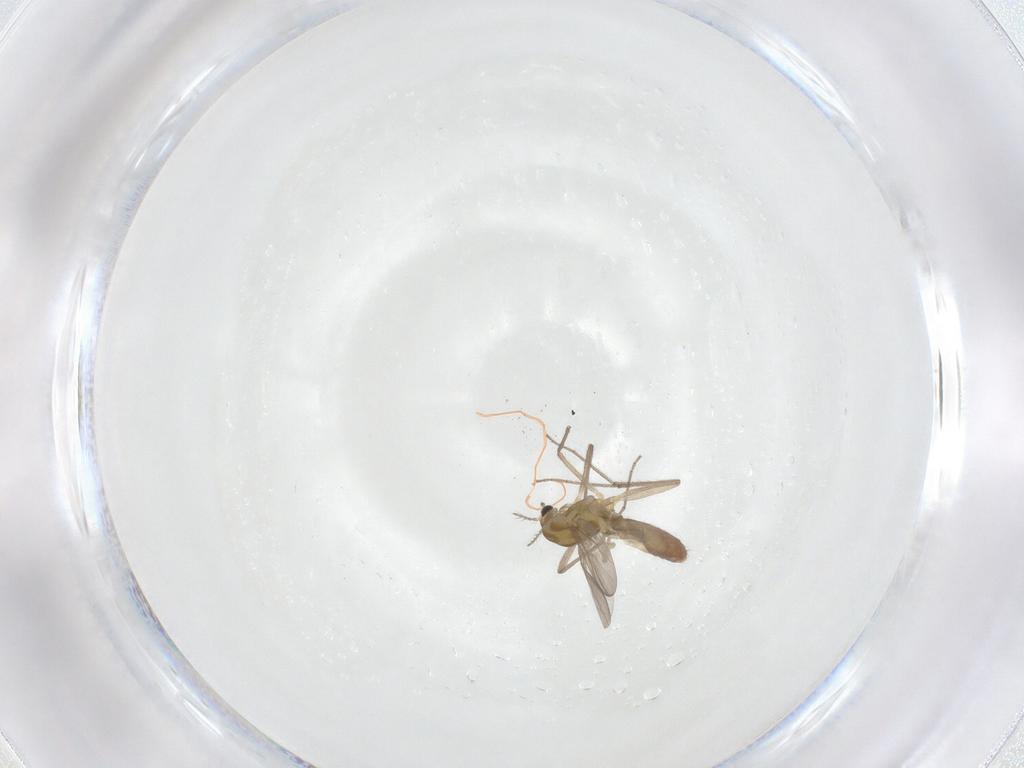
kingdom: Animalia
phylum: Arthropoda
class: Insecta
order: Diptera
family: Chironomidae
